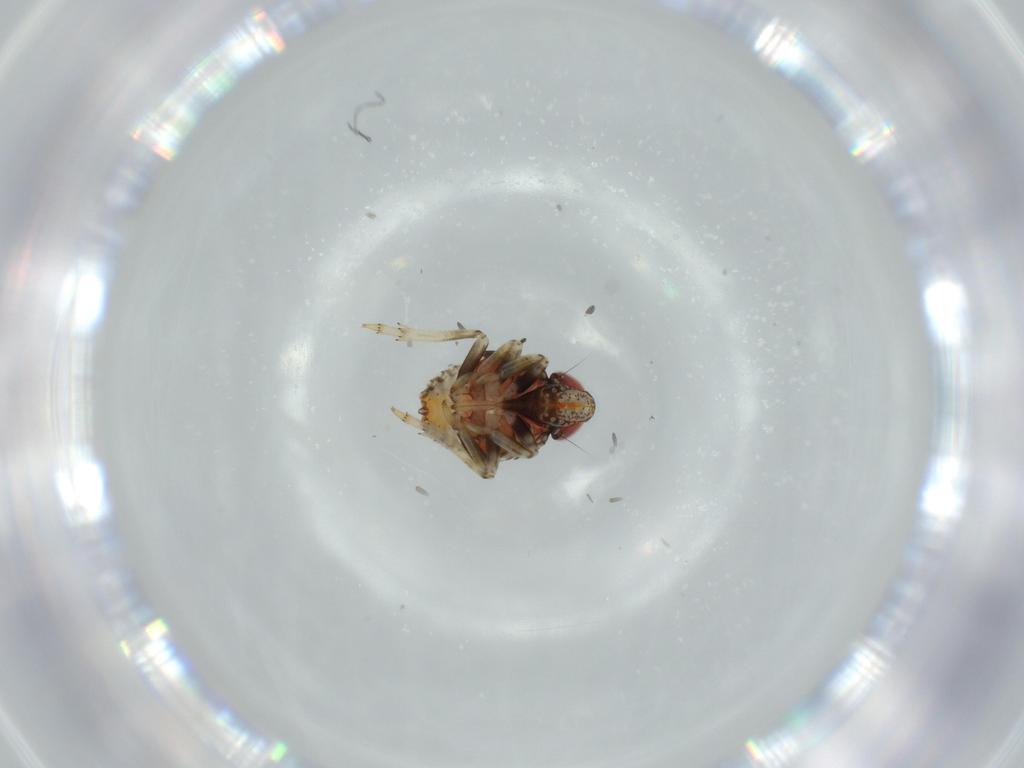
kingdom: Animalia
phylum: Arthropoda
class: Insecta
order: Hemiptera
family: Issidae
